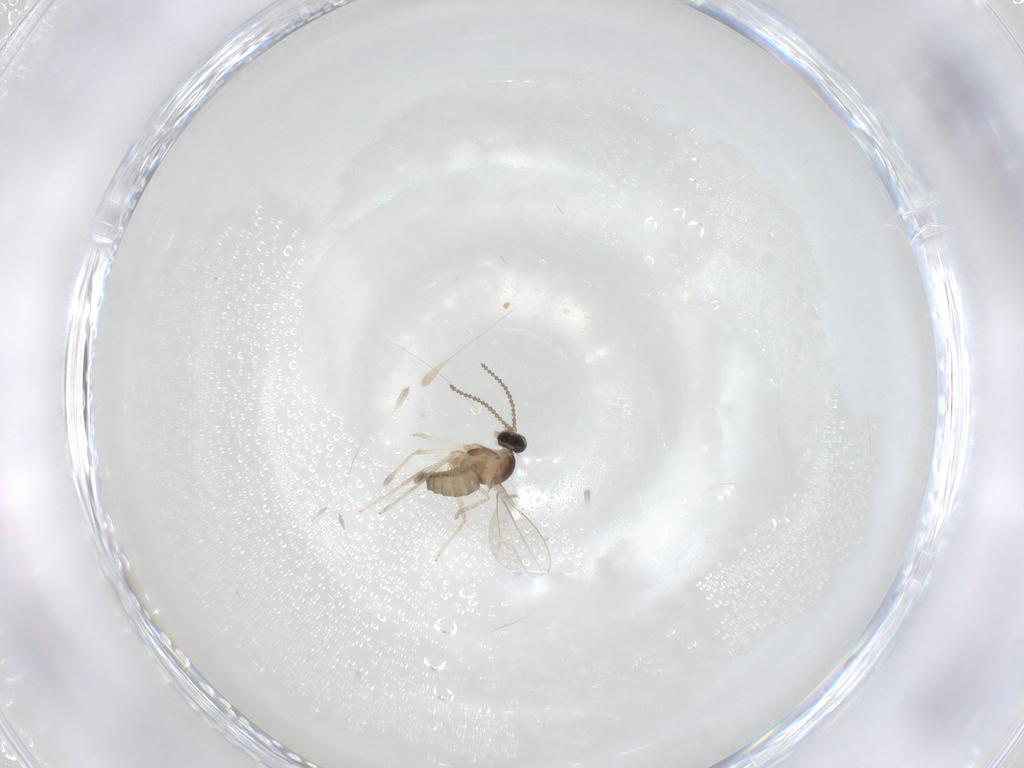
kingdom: Animalia
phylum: Arthropoda
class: Insecta
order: Diptera
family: Cecidomyiidae
